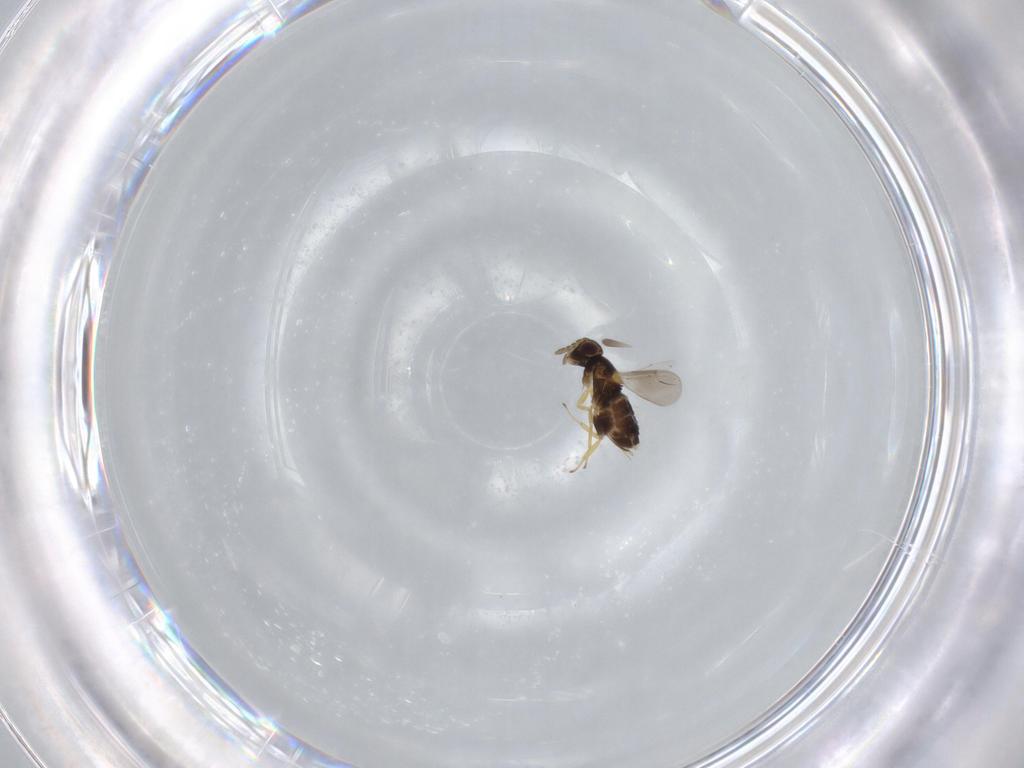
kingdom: Animalia
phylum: Arthropoda
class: Insecta
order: Hymenoptera
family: Aphelinidae
